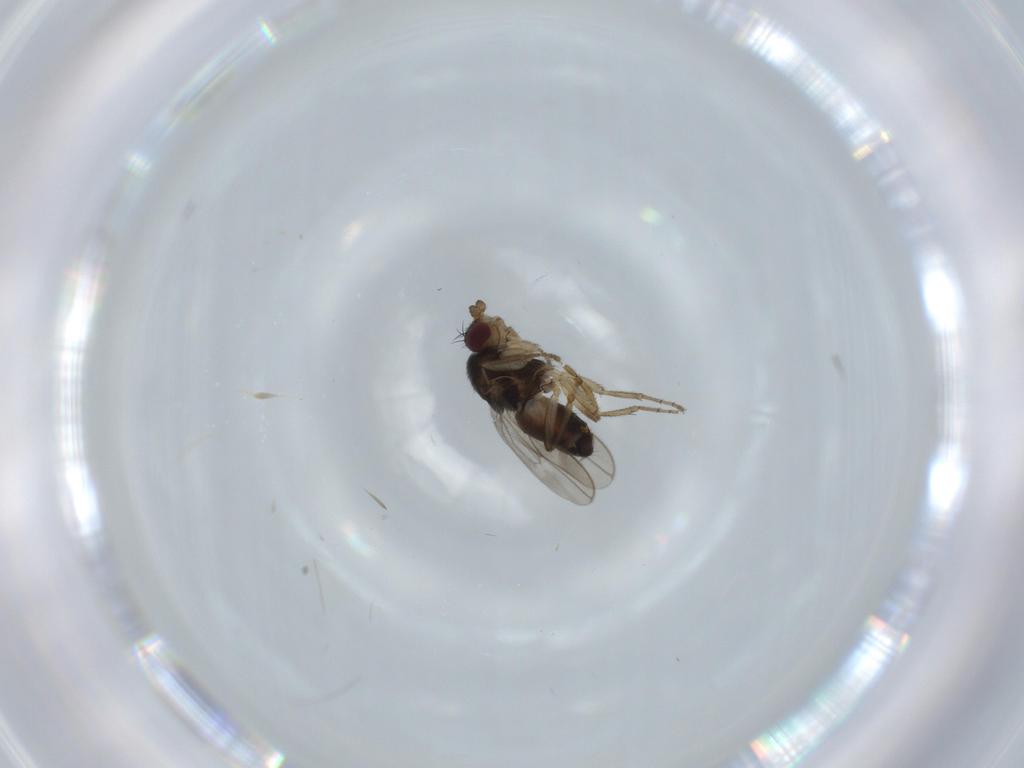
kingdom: Animalia
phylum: Arthropoda
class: Insecta
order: Diptera
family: Sphaeroceridae
